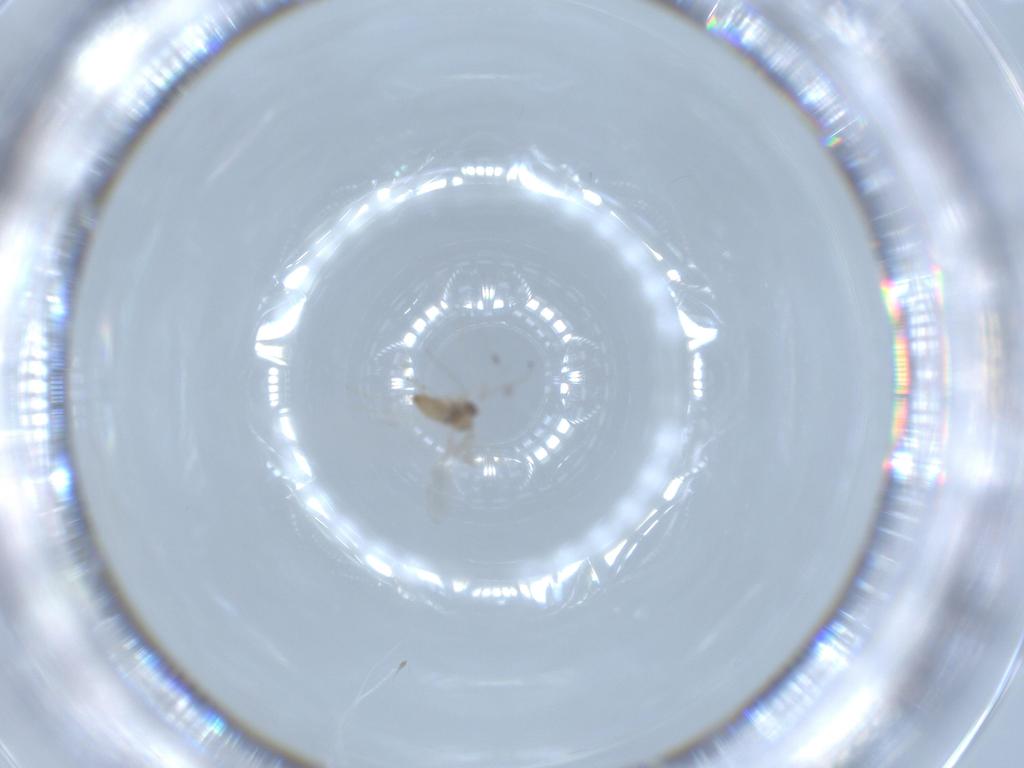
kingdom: Animalia
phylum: Arthropoda
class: Insecta
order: Diptera
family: Cecidomyiidae
